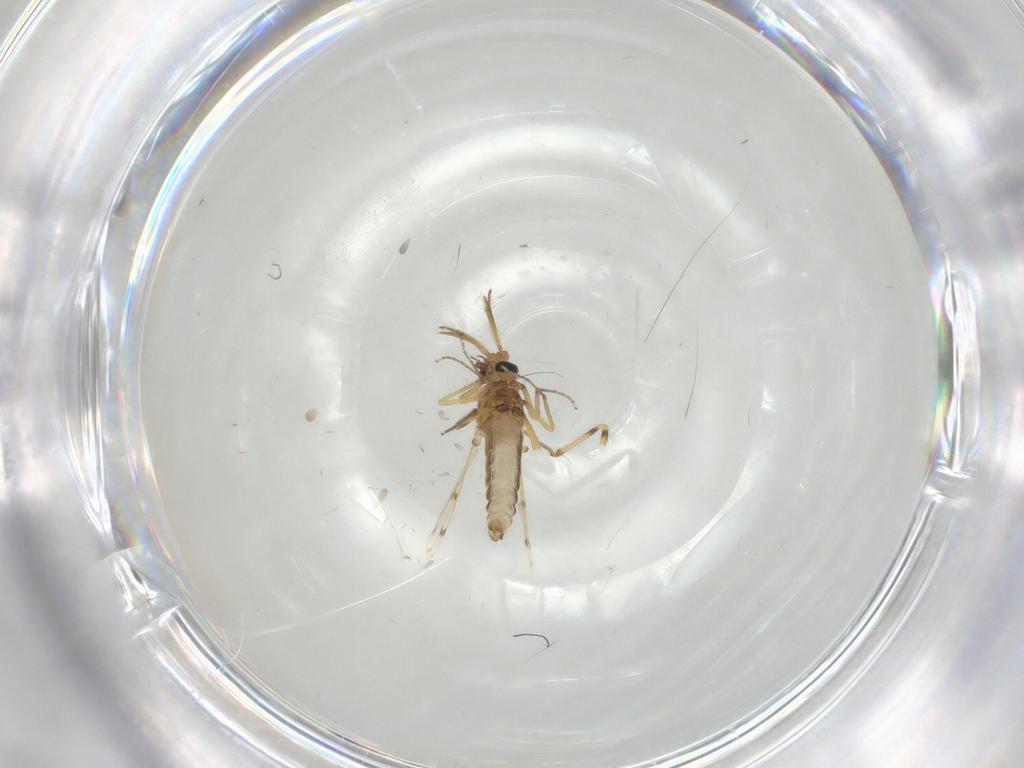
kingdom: Animalia
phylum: Arthropoda
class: Insecta
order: Diptera
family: Ceratopogonidae
